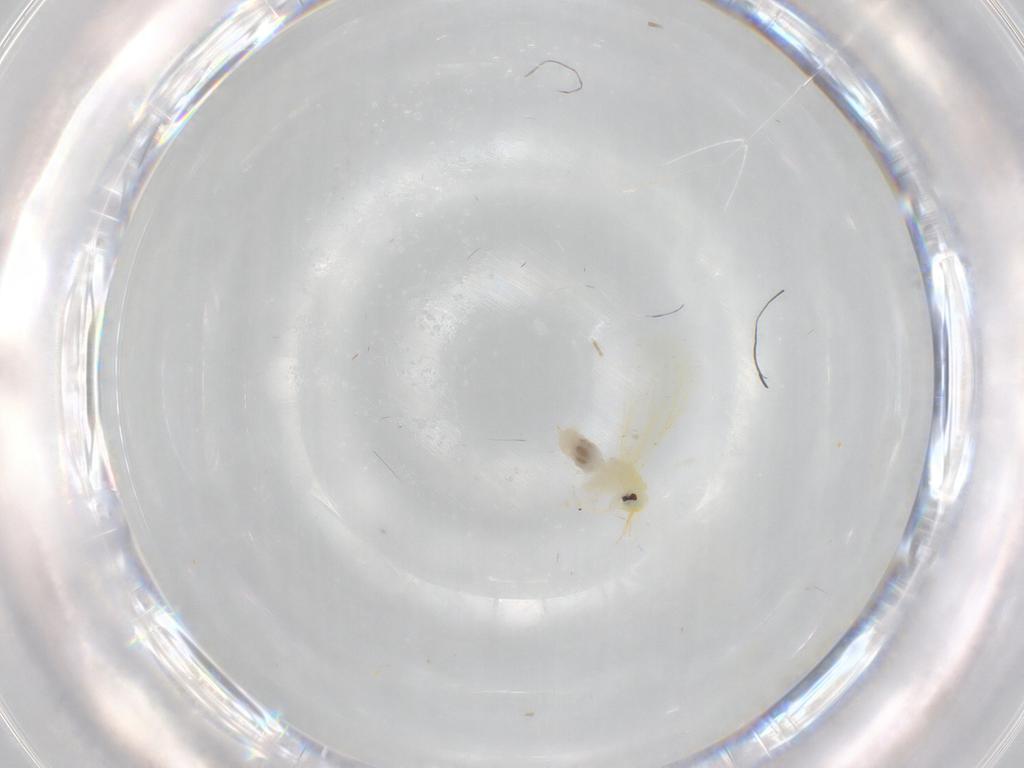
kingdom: Animalia
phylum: Arthropoda
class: Insecta
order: Hemiptera
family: Aleyrodidae
